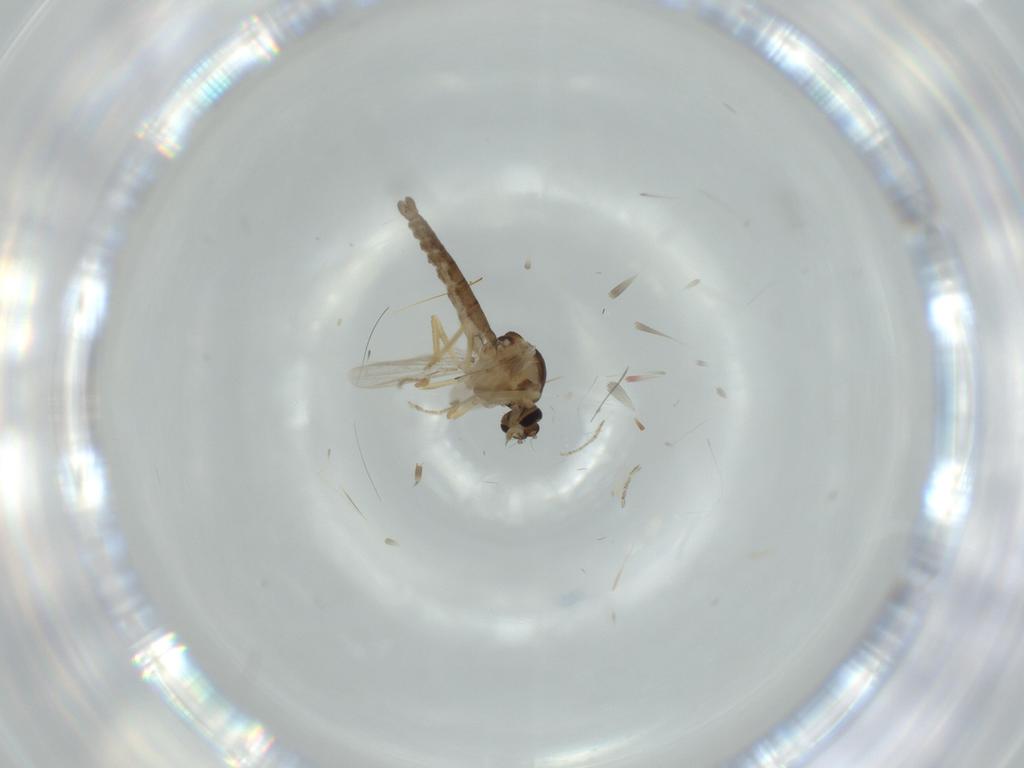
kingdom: Animalia
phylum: Arthropoda
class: Insecta
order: Diptera
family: Ceratopogonidae
